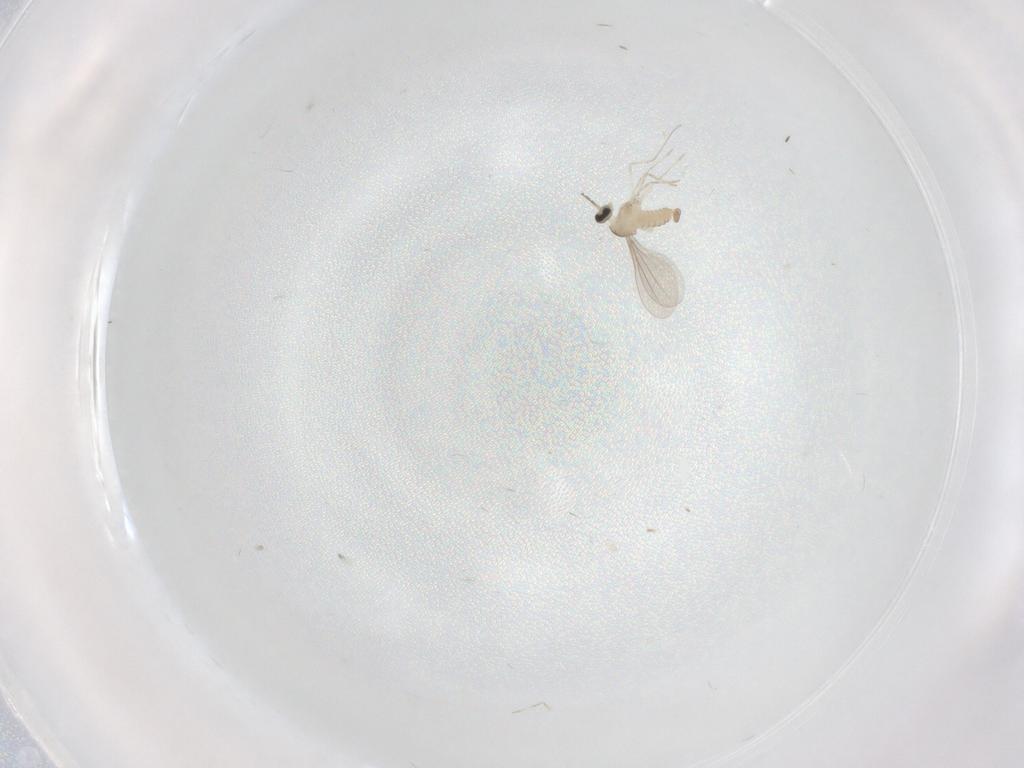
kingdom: Animalia
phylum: Arthropoda
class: Insecta
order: Diptera
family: Cecidomyiidae
